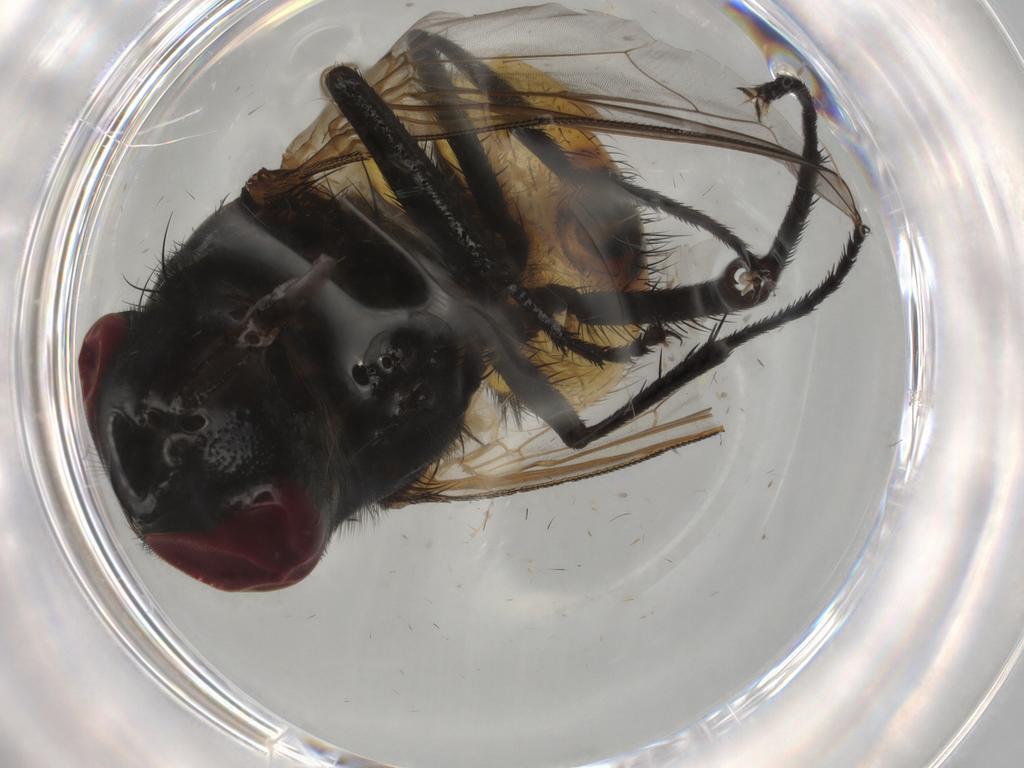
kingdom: Animalia
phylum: Arthropoda
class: Insecta
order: Diptera
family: Muscidae
